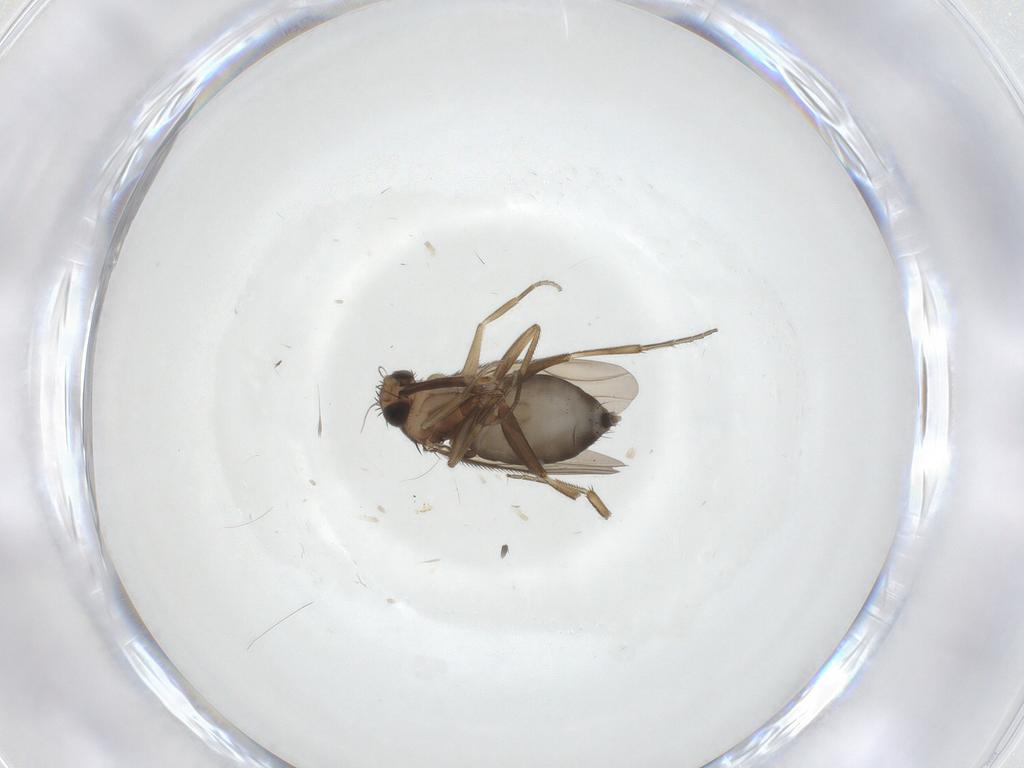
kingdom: Animalia
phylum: Arthropoda
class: Insecta
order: Diptera
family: Phoridae
